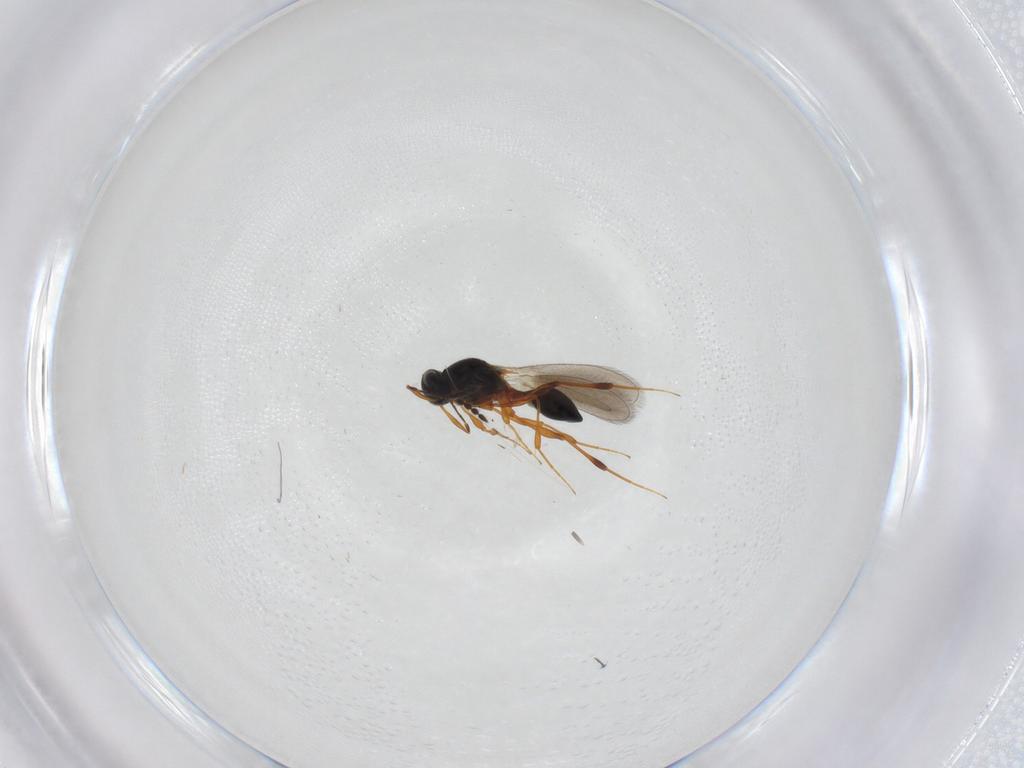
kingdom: Animalia
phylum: Arthropoda
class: Insecta
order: Hymenoptera
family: Platygastridae
